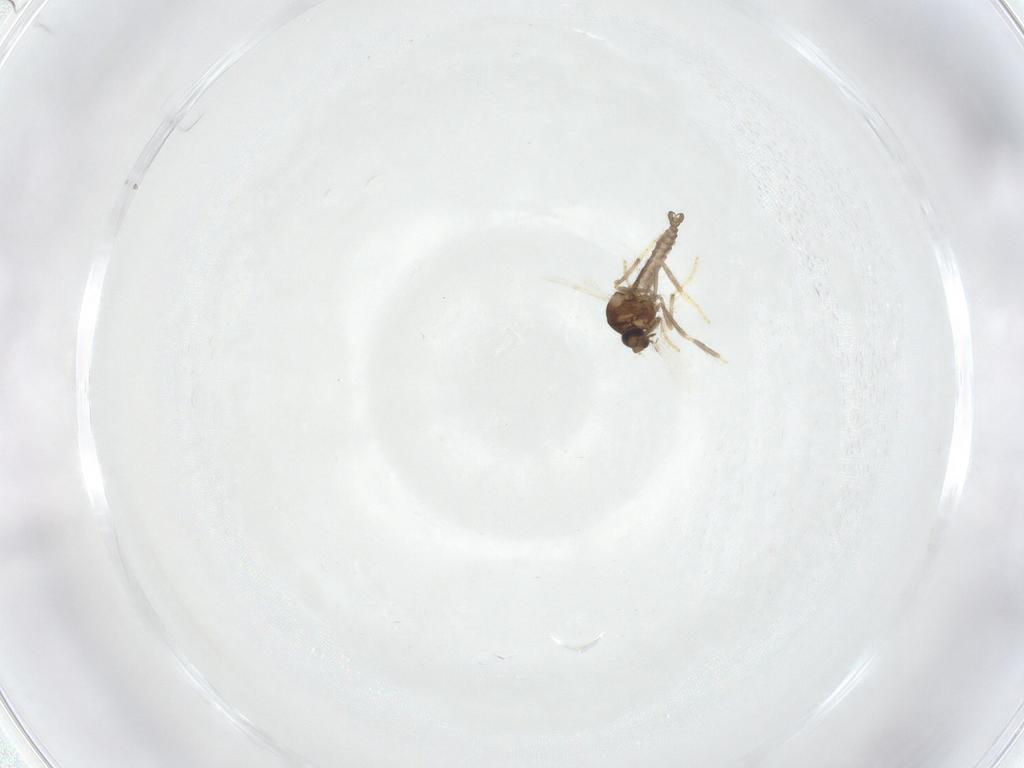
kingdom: Animalia
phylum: Arthropoda
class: Insecta
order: Diptera
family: Ceratopogonidae
